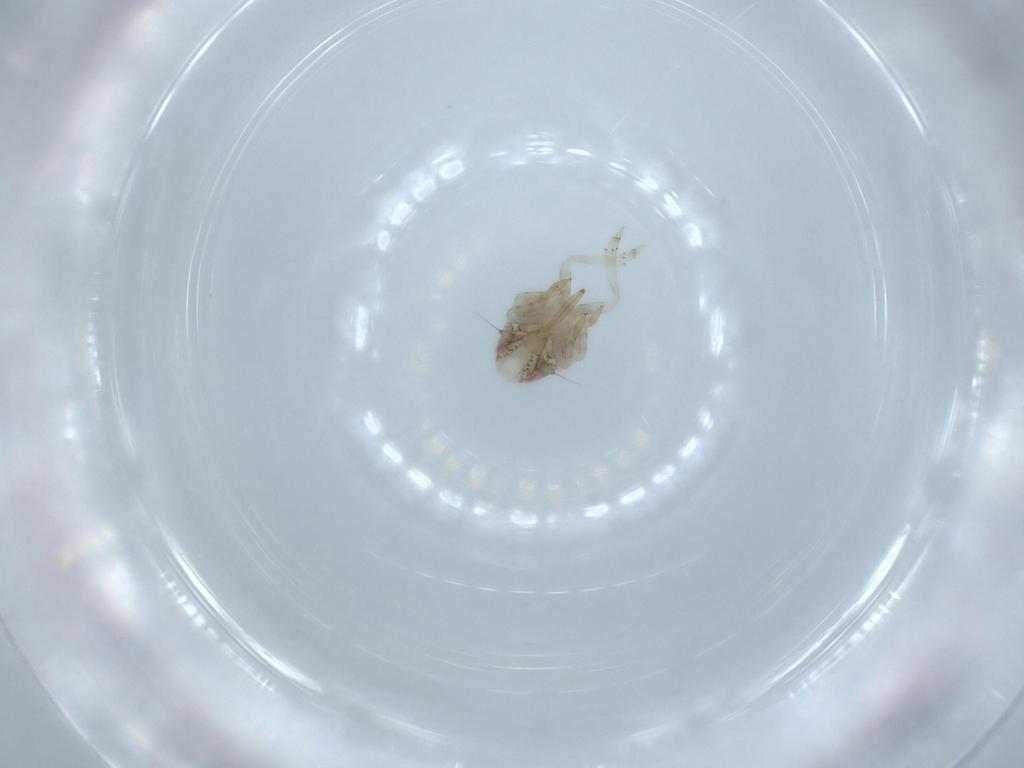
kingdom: Animalia
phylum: Arthropoda
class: Insecta
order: Hemiptera
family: Acanaloniidae
